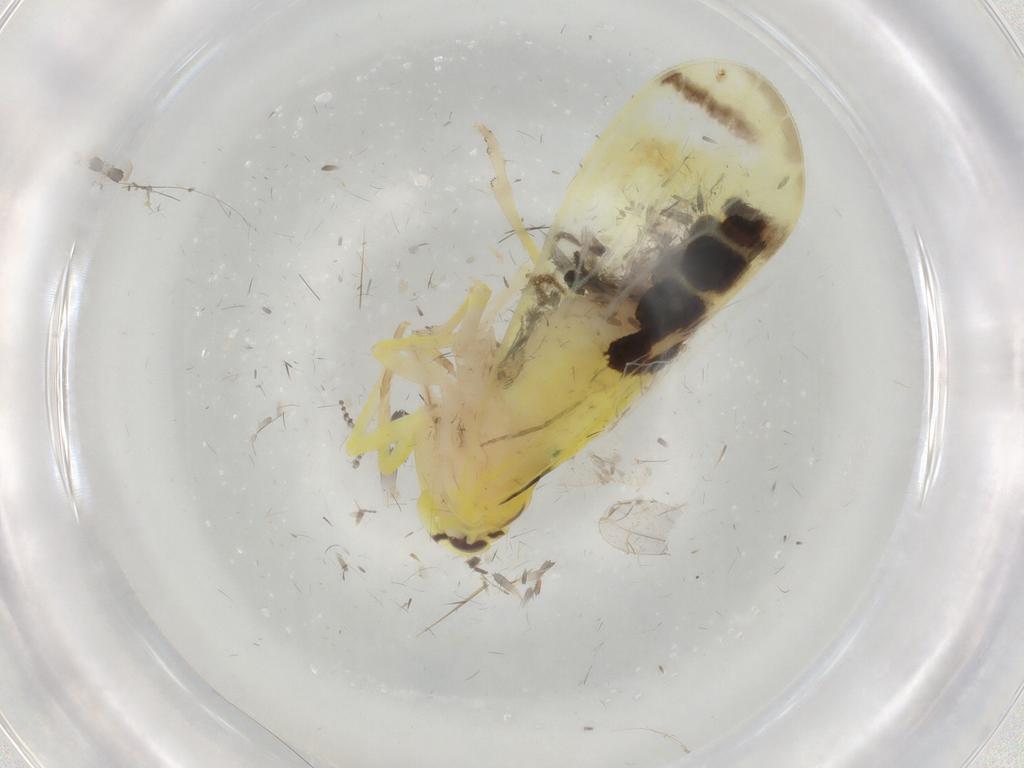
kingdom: Animalia
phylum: Arthropoda
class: Insecta
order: Hemiptera
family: Derbidae
